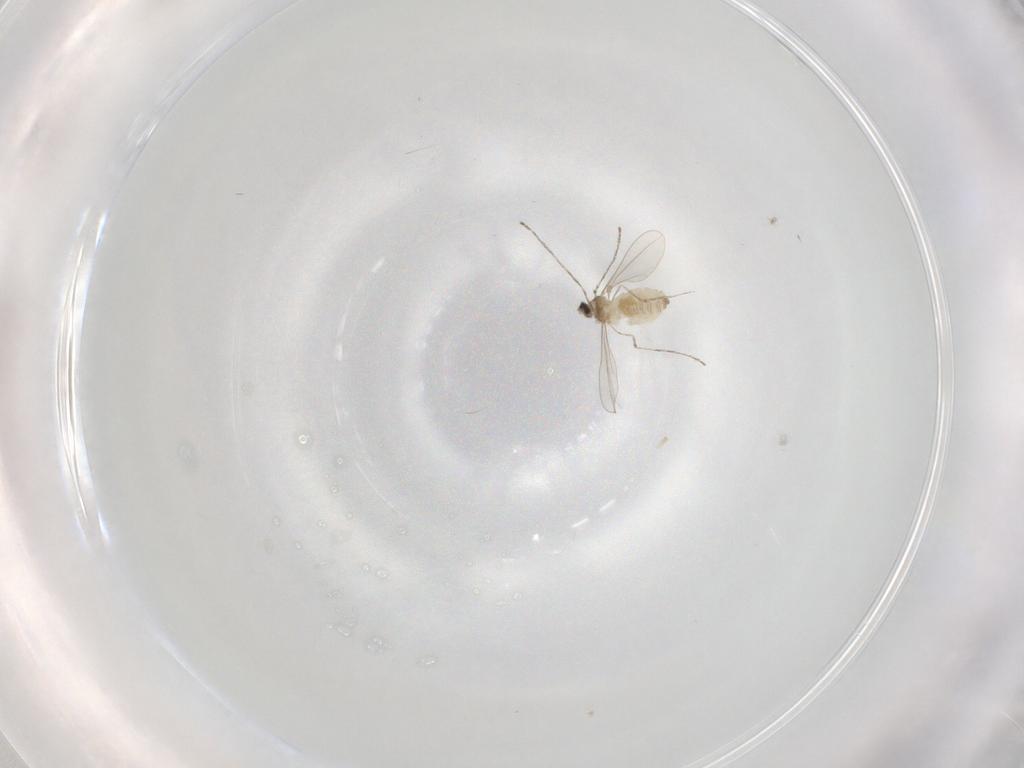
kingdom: Animalia
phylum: Arthropoda
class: Insecta
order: Diptera
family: Cecidomyiidae
